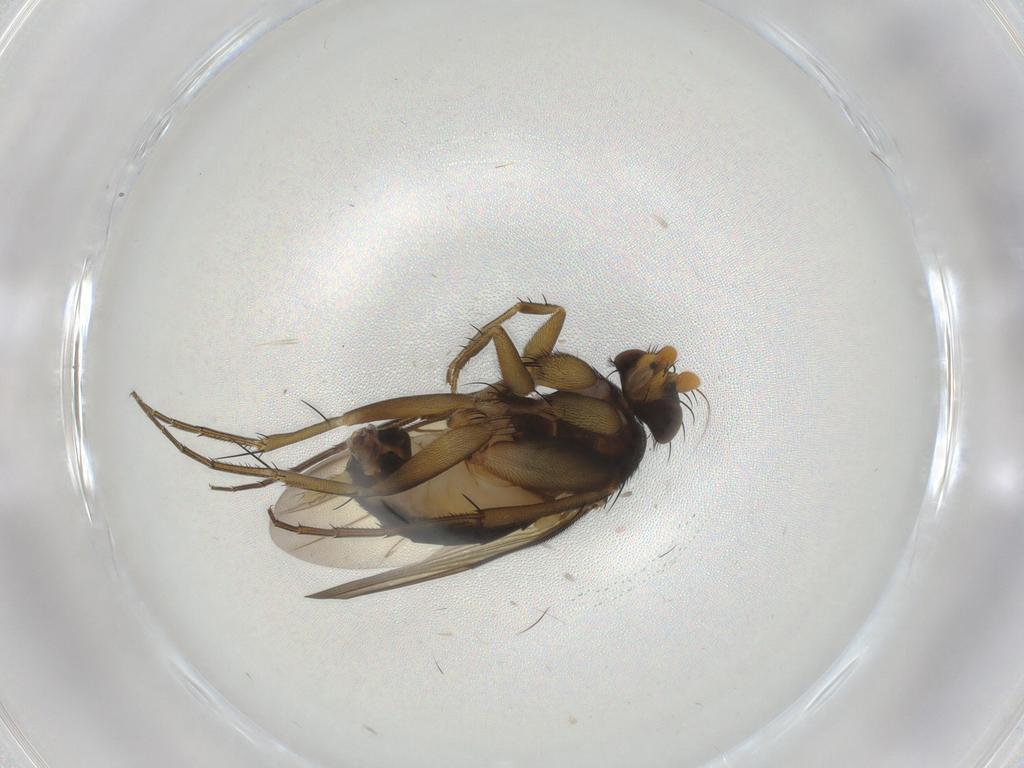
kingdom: Animalia
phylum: Arthropoda
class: Insecta
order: Diptera
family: Phoridae
